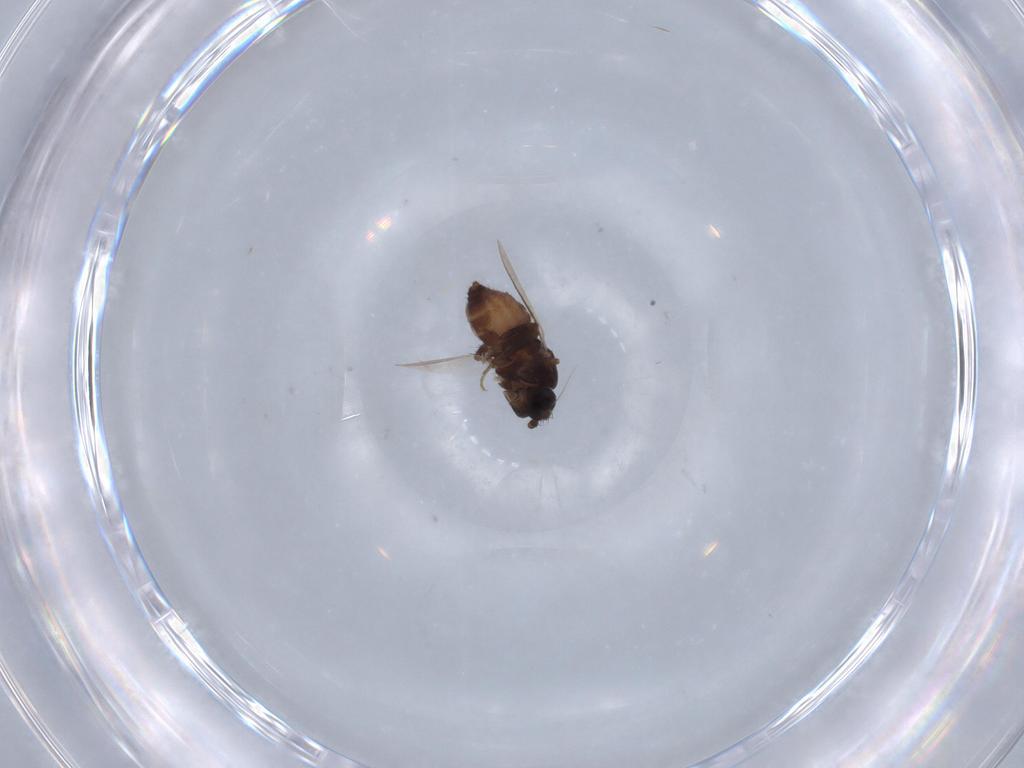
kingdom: Animalia
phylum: Arthropoda
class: Insecta
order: Diptera
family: Sphaeroceridae
